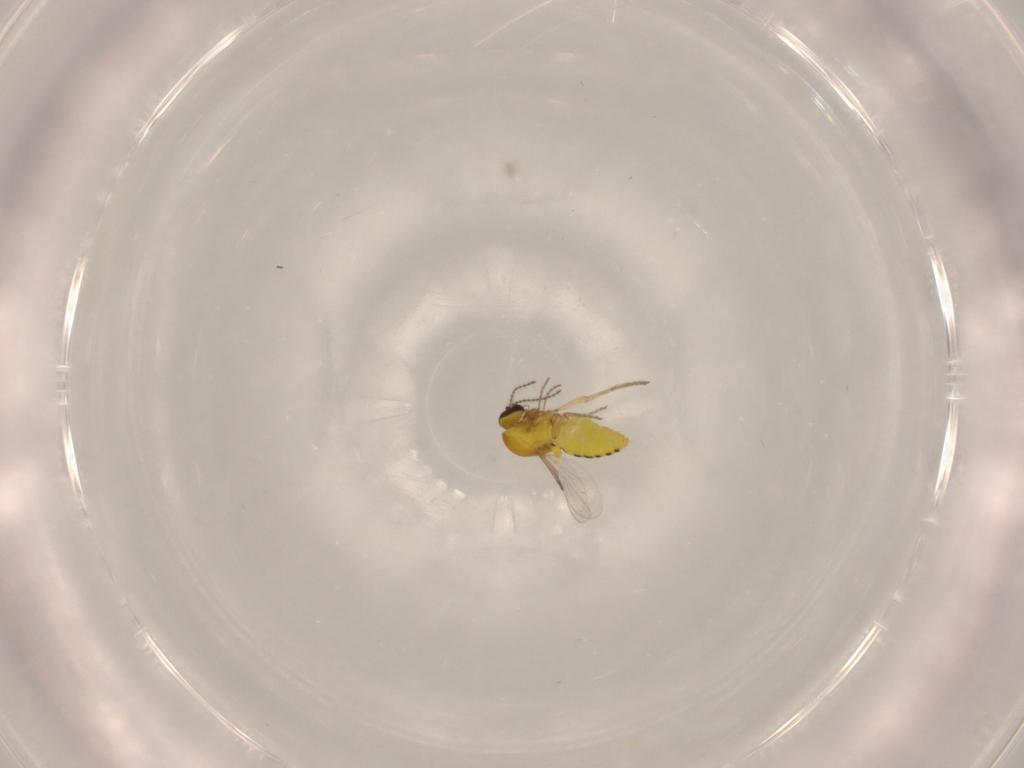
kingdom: Animalia
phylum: Arthropoda
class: Insecta
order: Diptera
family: Ceratopogonidae
